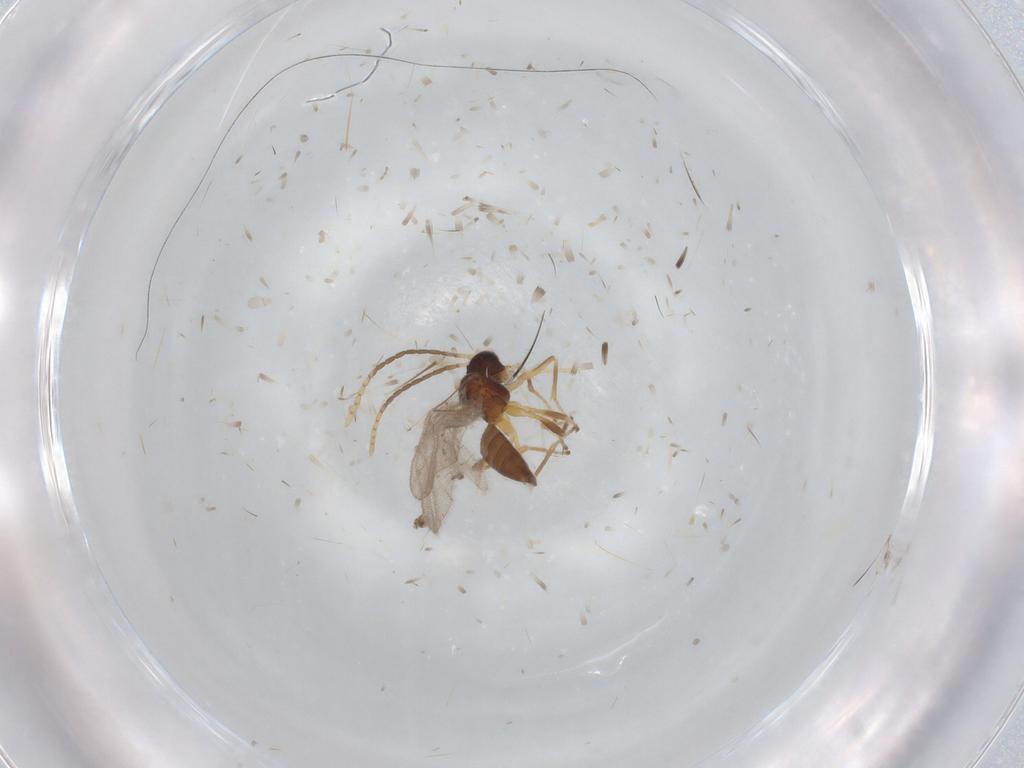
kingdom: Animalia
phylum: Arthropoda
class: Insecta
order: Hymenoptera
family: Braconidae
